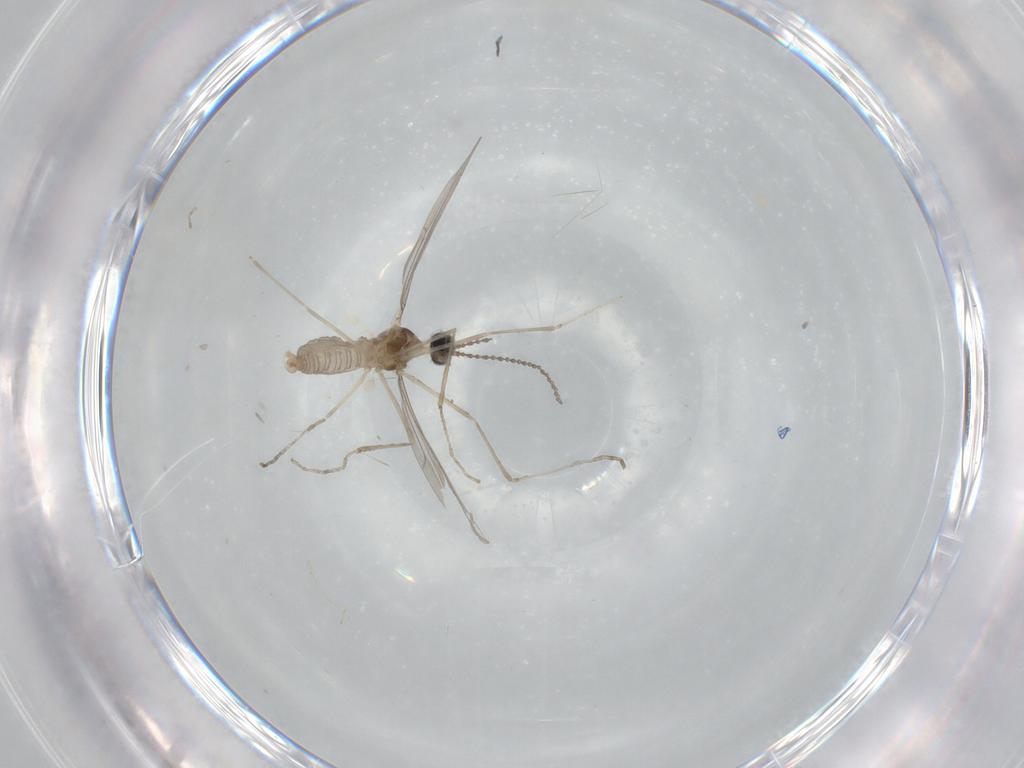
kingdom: Animalia
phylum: Arthropoda
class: Insecta
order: Diptera
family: Cecidomyiidae
